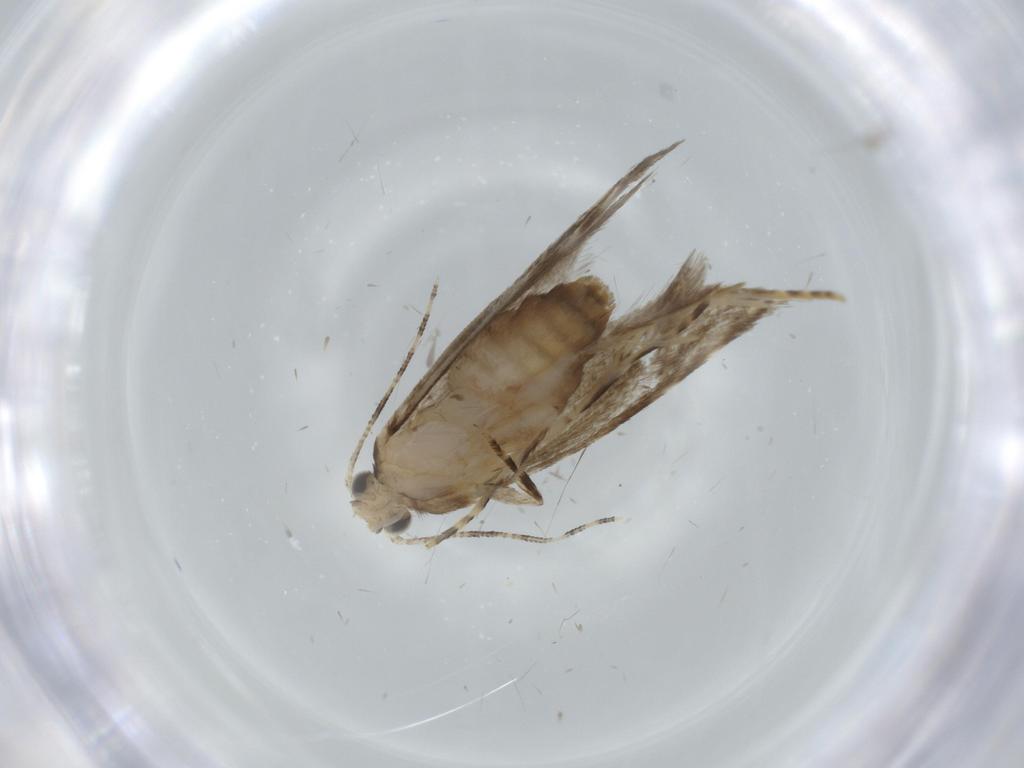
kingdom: Animalia
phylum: Arthropoda
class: Insecta
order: Lepidoptera
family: Tineidae
